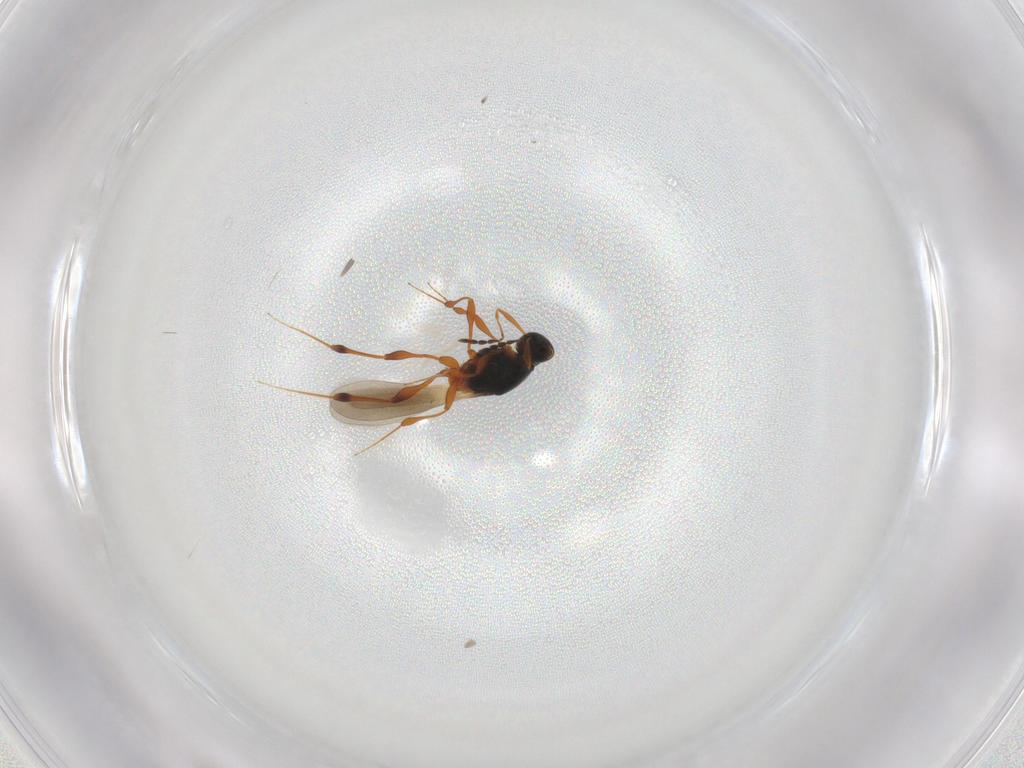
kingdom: Animalia
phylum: Arthropoda
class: Insecta
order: Hymenoptera
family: Platygastridae
